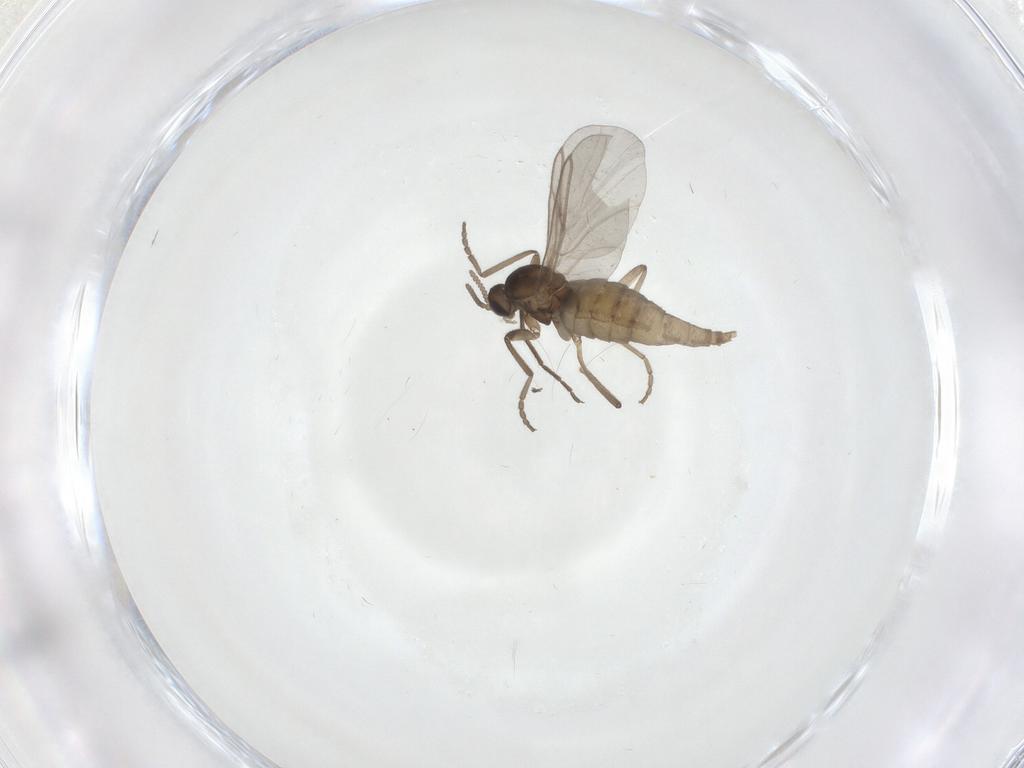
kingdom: Animalia
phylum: Arthropoda
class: Insecta
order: Diptera
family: Cecidomyiidae
